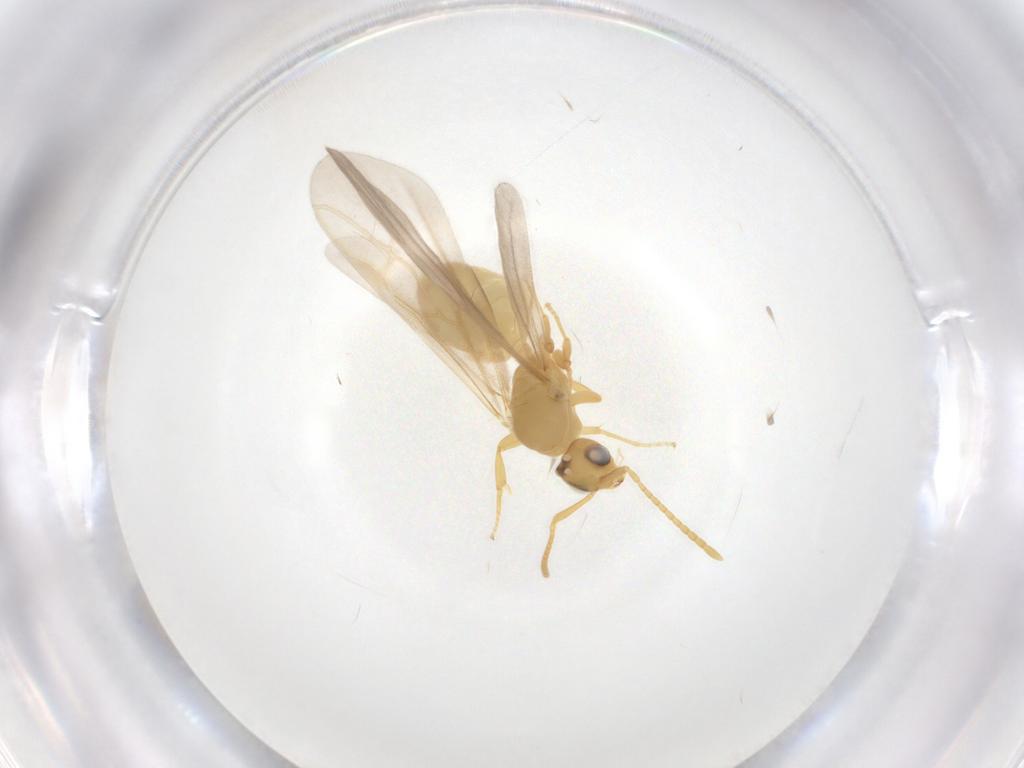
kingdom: Animalia
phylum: Arthropoda
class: Insecta
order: Hymenoptera
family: Formicidae
